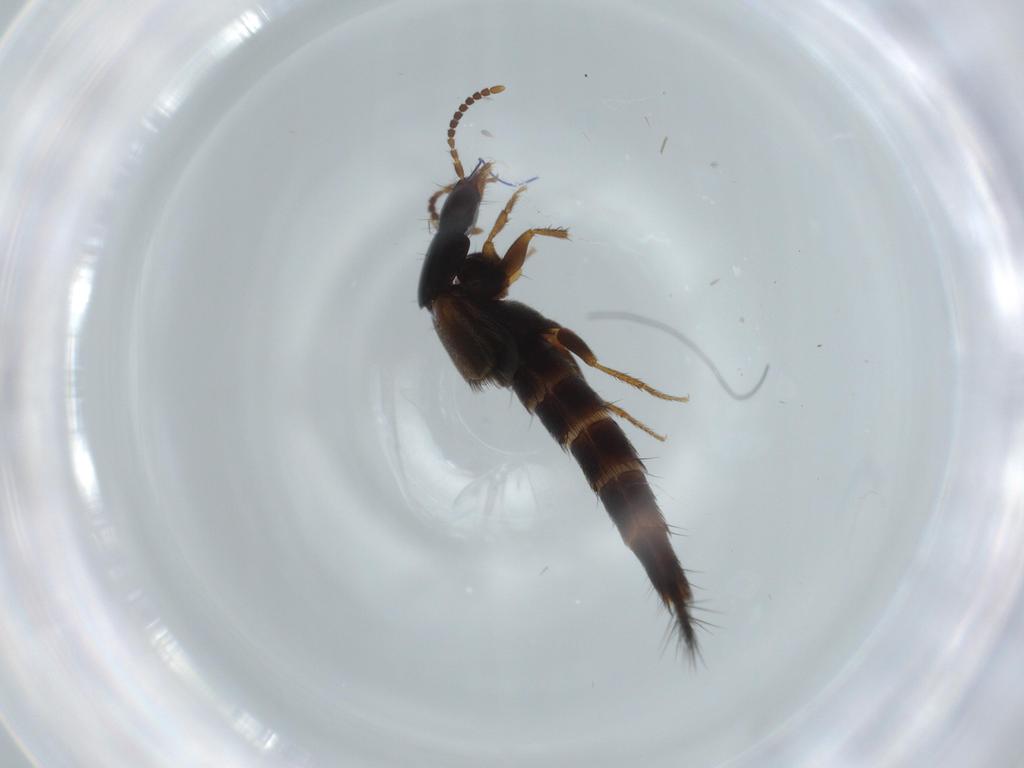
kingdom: Animalia
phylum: Arthropoda
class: Insecta
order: Coleoptera
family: Staphylinidae
